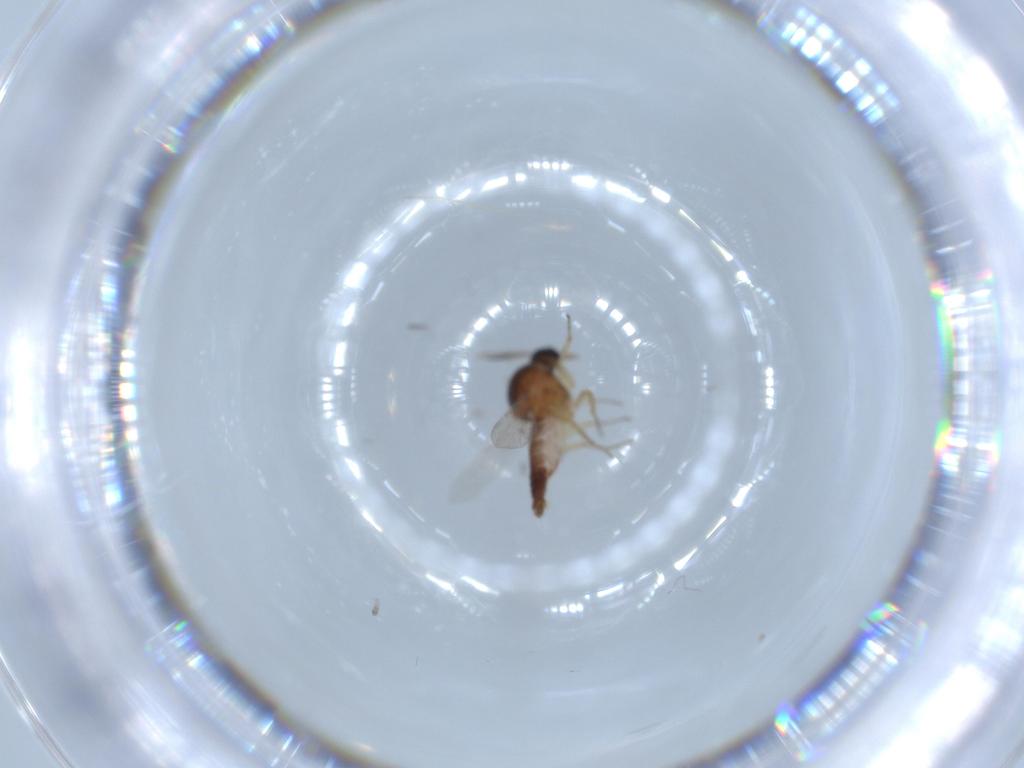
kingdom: Animalia
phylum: Arthropoda
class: Insecta
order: Diptera
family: Ceratopogonidae
